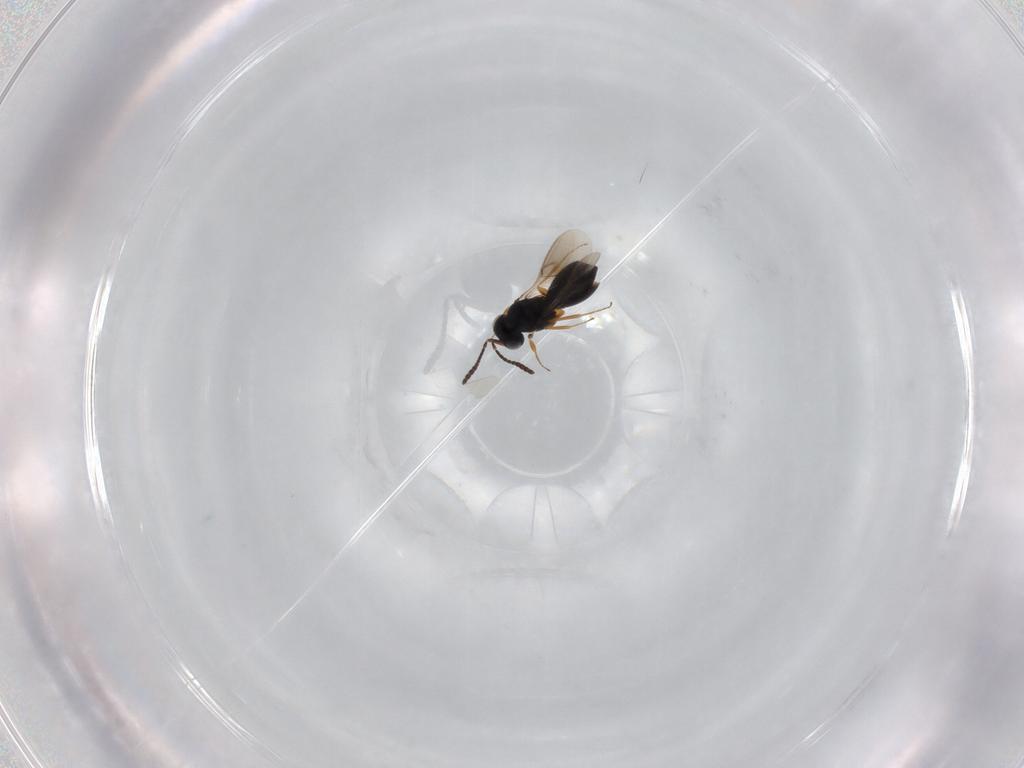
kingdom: Animalia
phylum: Arthropoda
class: Insecta
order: Hymenoptera
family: Scelionidae
